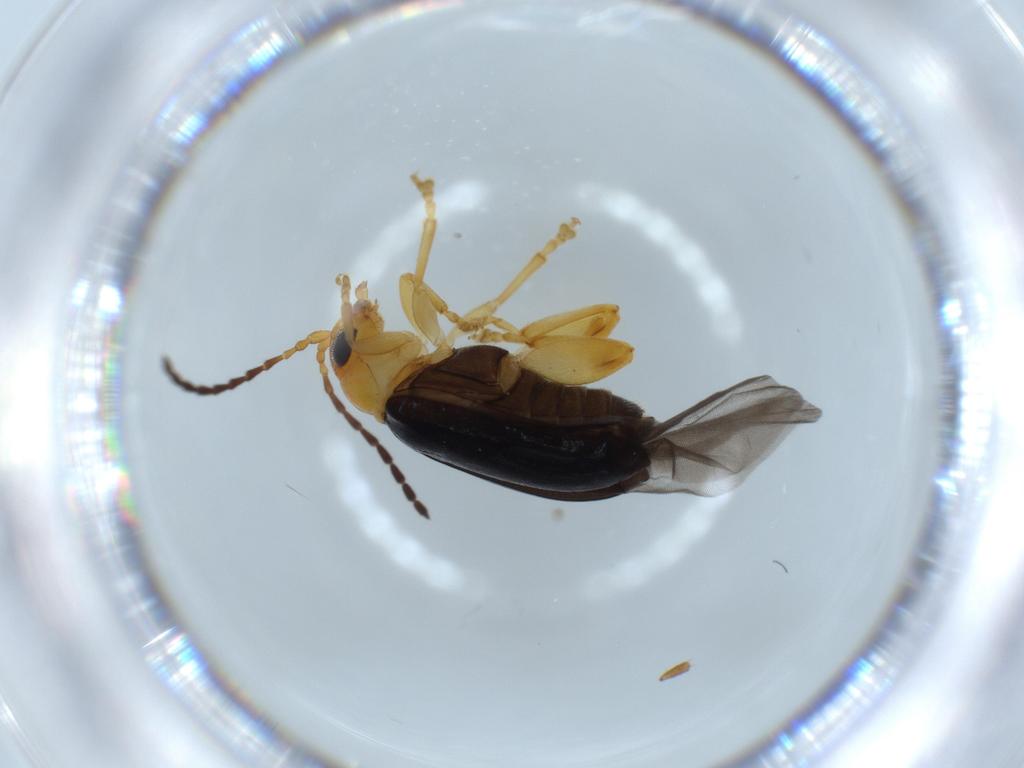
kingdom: Animalia
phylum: Arthropoda
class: Insecta
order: Coleoptera
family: Chrysomelidae
